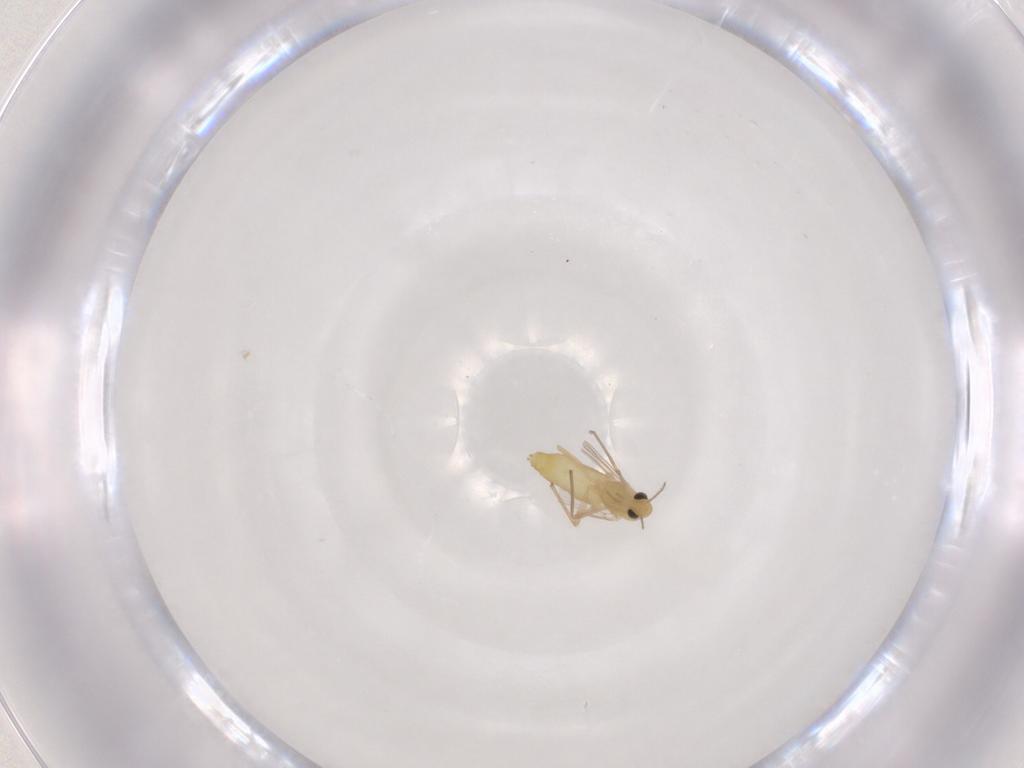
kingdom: Animalia
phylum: Arthropoda
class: Insecta
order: Diptera
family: Chironomidae
